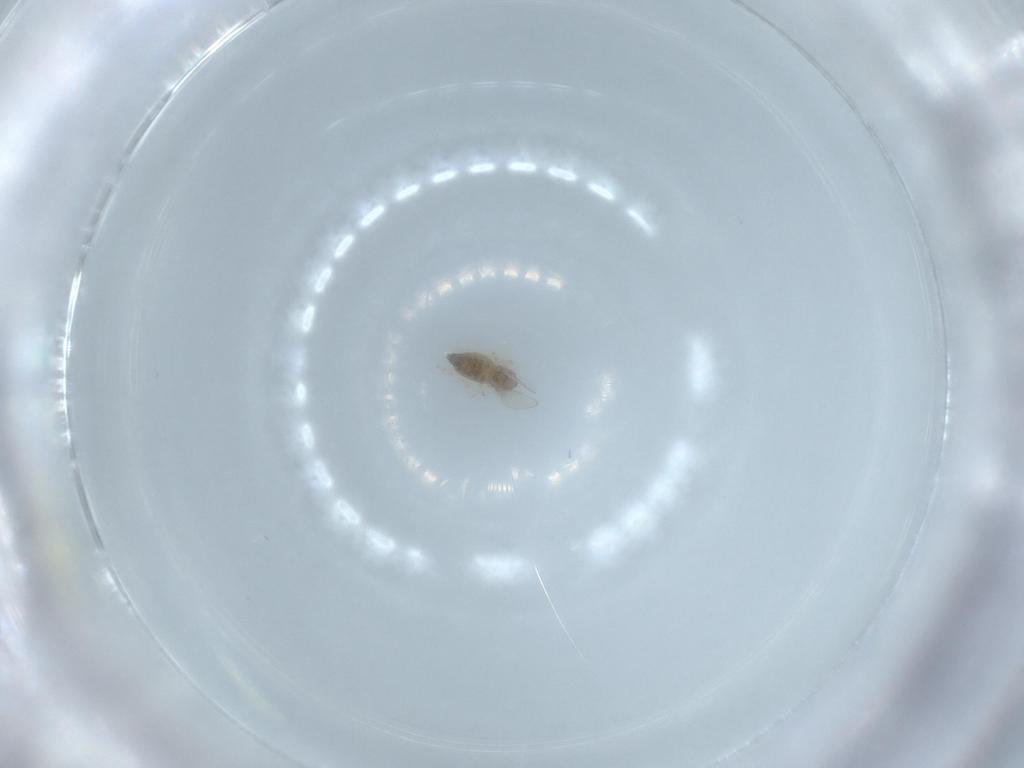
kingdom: Animalia
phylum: Arthropoda
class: Insecta
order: Diptera
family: Chironomidae
